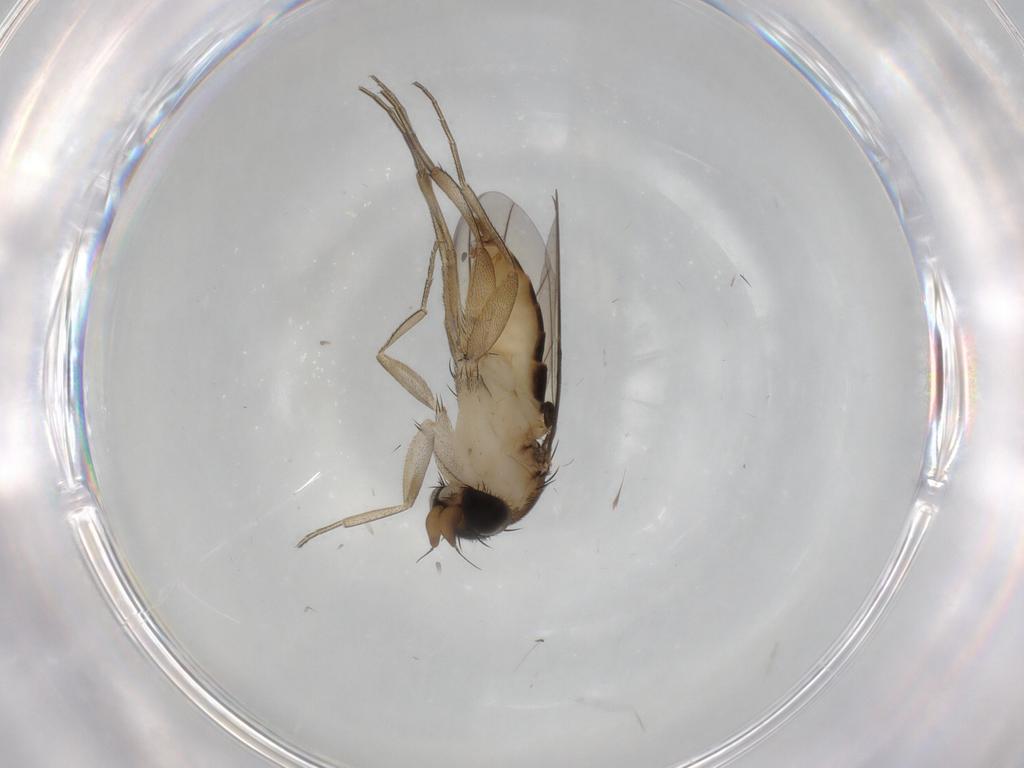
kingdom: Animalia
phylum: Arthropoda
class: Insecta
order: Diptera
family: Phoridae
